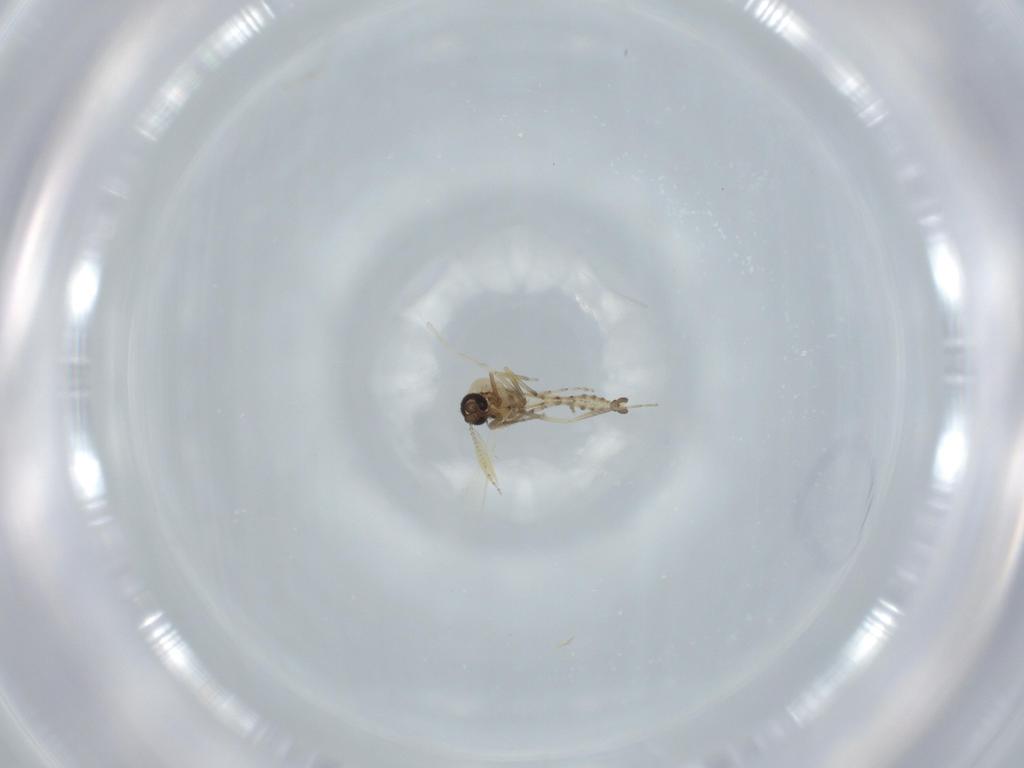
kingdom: Animalia
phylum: Arthropoda
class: Insecta
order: Diptera
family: Ceratopogonidae
